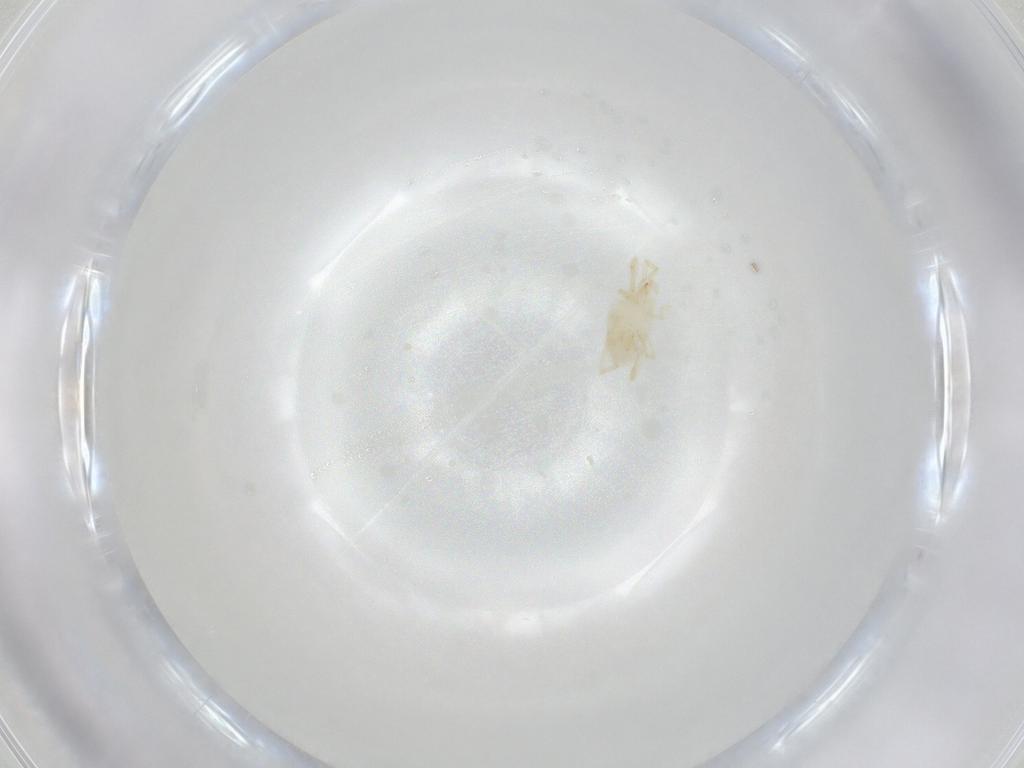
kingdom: Animalia
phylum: Arthropoda
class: Arachnida
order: Trombidiformes
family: Erythraeidae
